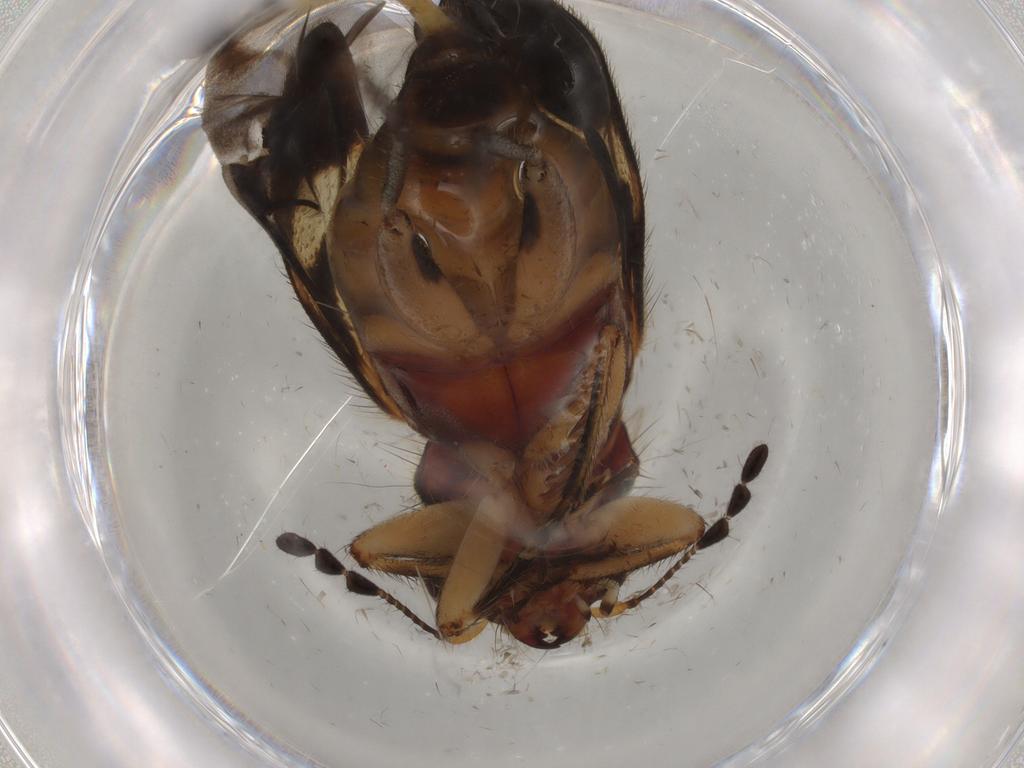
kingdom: Animalia
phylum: Arthropoda
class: Insecta
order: Coleoptera
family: Cleridae
